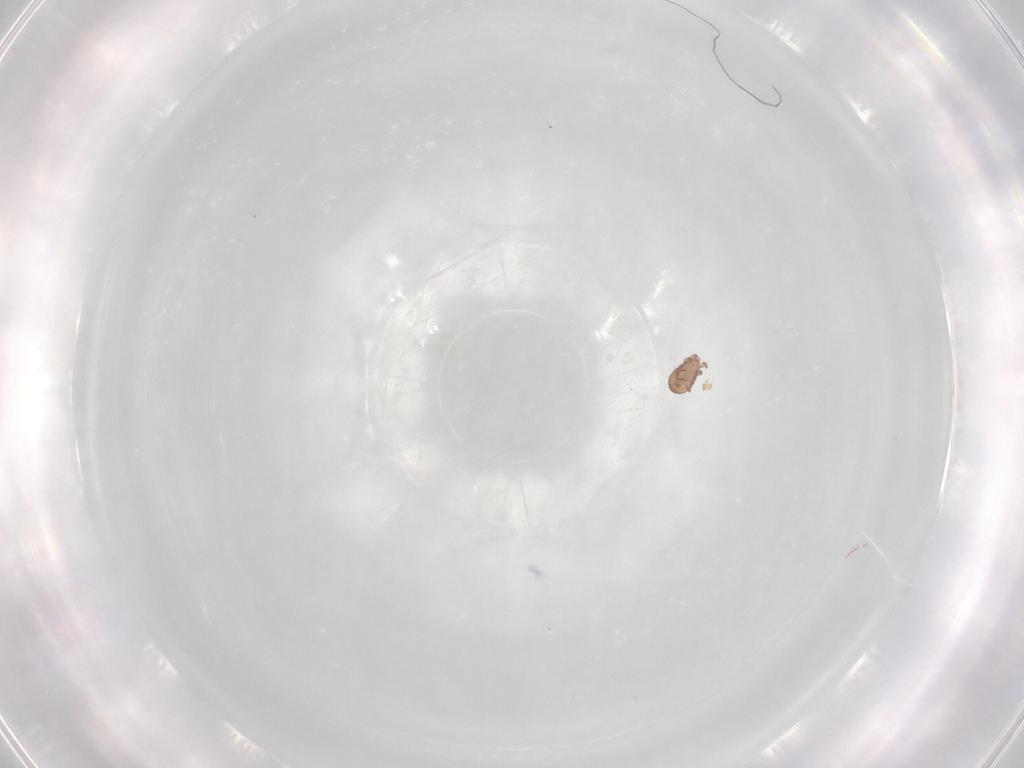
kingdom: Animalia
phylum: Arthropoda
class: Arachnida
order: Sarcoptiformes
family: Eremaeidae
